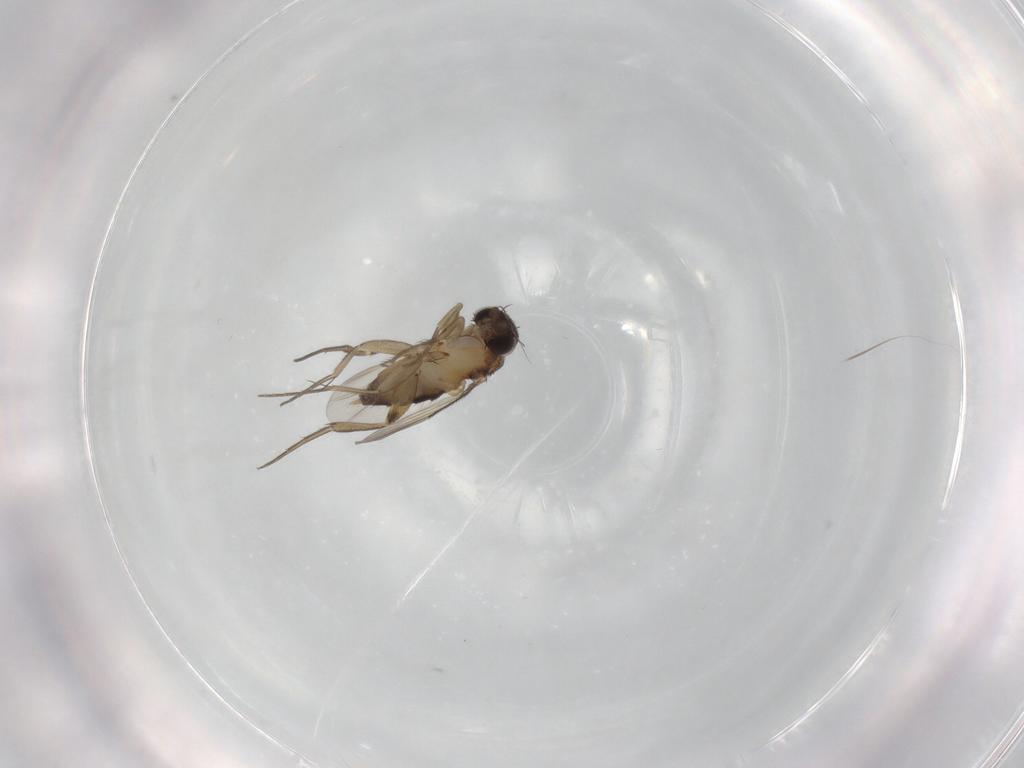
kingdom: Animalia
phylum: Arthropoda
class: Insecta
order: Diptera
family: Phoridae
